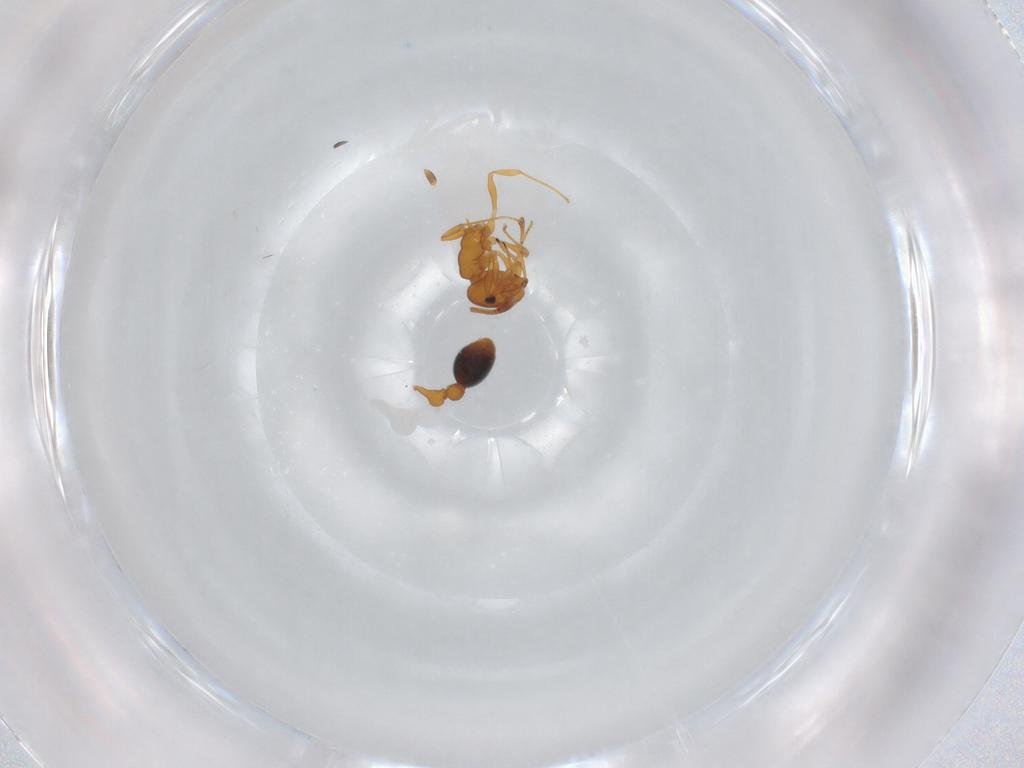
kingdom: Animalia
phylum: Arthropoda
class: Insecta
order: Hymenoptera
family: Formicidae
